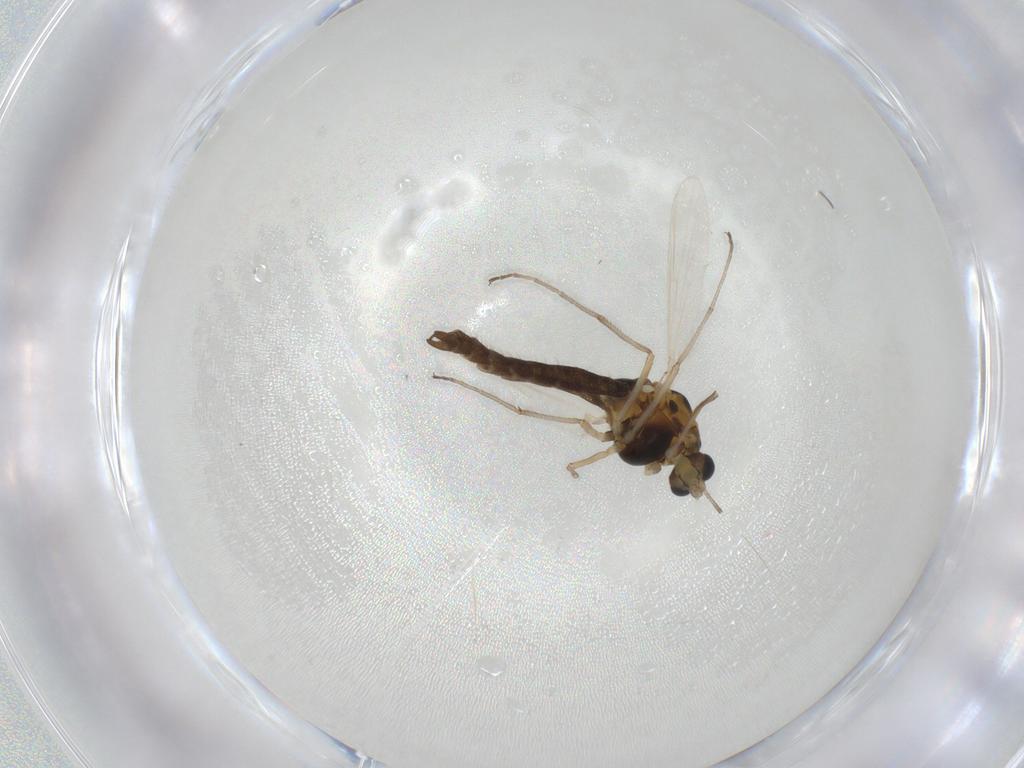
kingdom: Animalia
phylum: Arthropoda
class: Insecta
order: Diptera
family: Chironomidae
